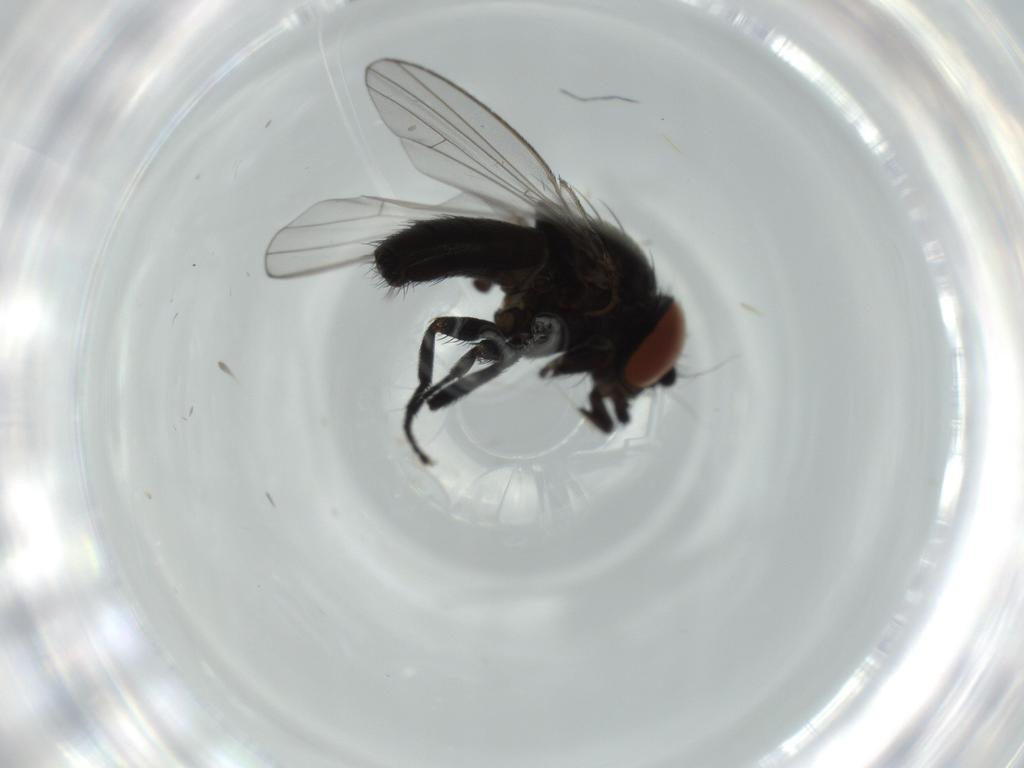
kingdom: Animalia
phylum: Arthropoda
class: Insecta
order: Diptera
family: Milichiidae
